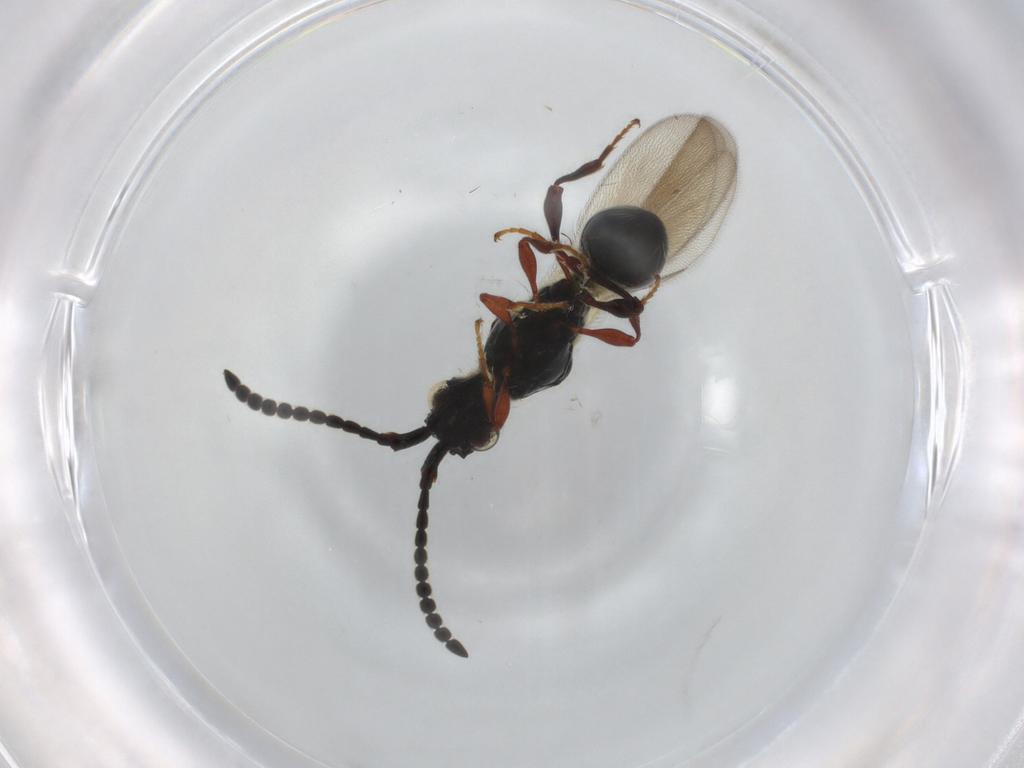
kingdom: Animalia
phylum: Arthropoda
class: Insecta
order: Hymenoptera
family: Diapriidae
